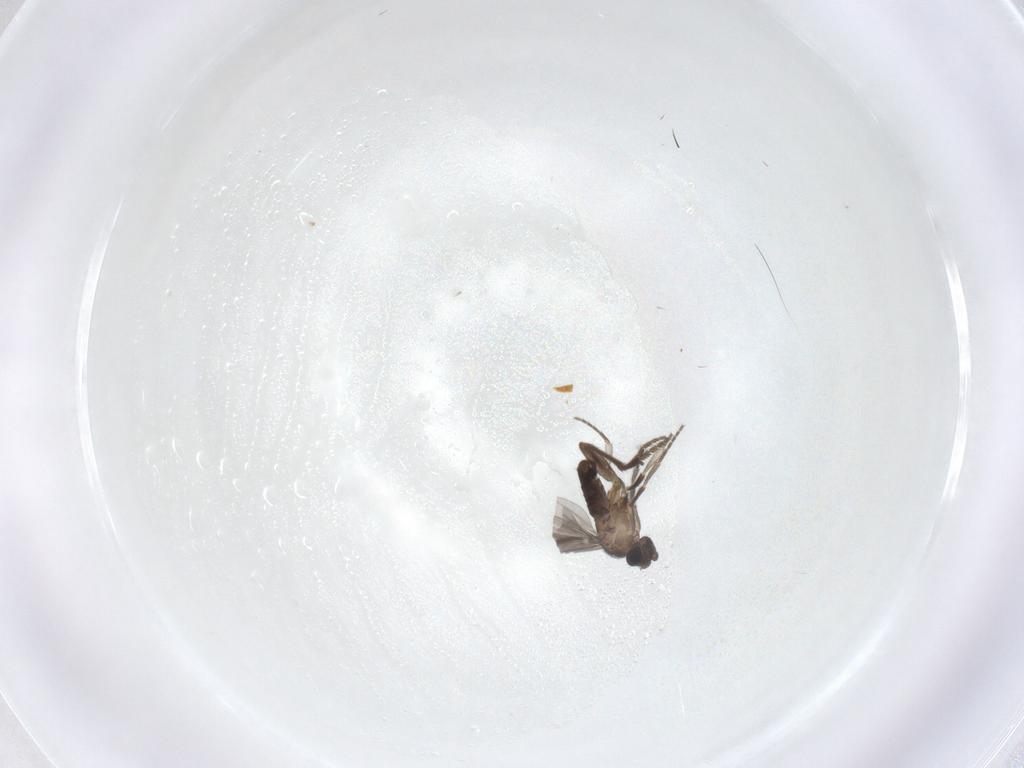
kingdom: Animalia
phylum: Arthropoda
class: Insecta
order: Diptera
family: Phoridae
